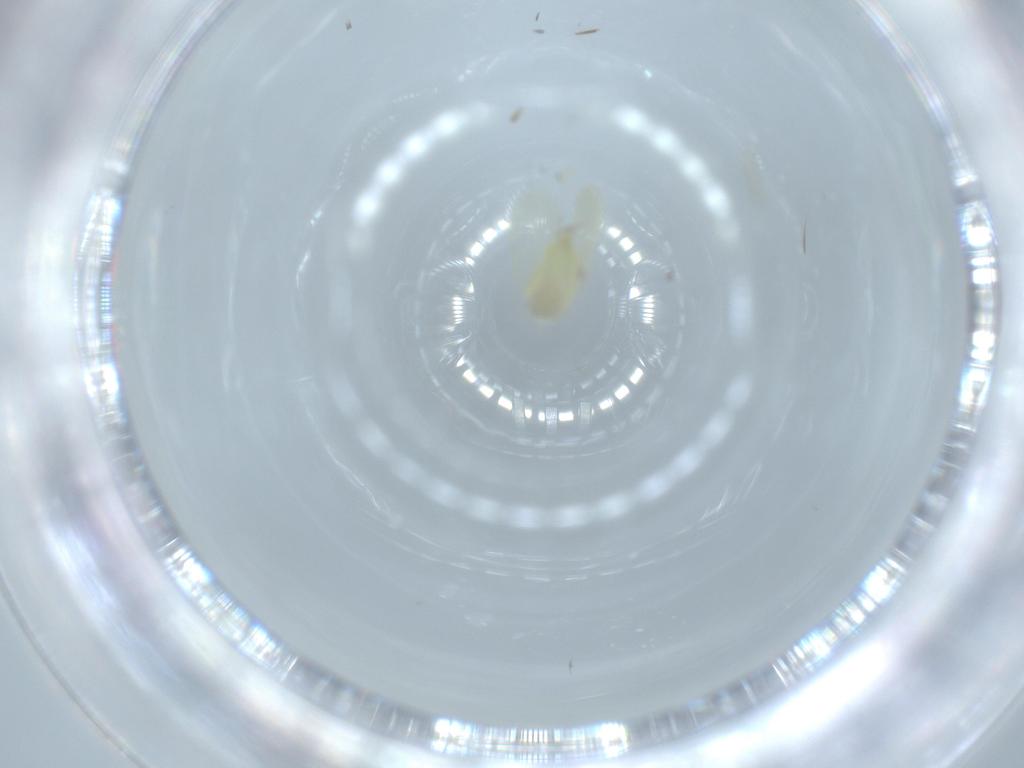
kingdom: Animalia
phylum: Arthropoda
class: Insecta
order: Lepidoptera
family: Tineidae
